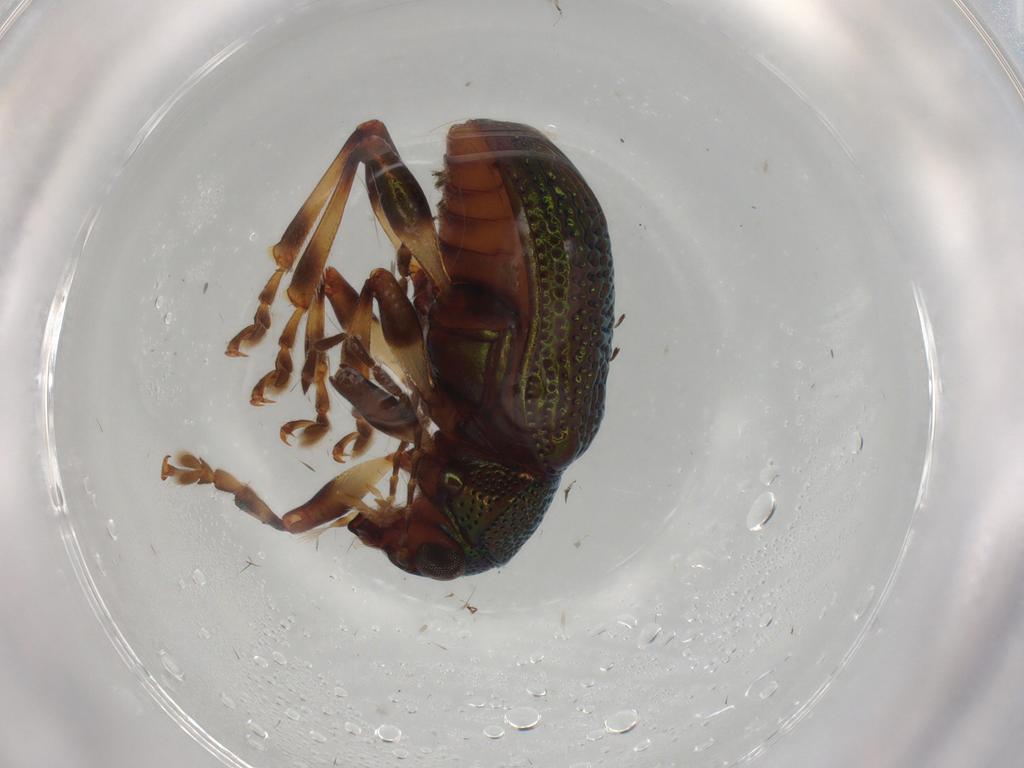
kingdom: Animalia
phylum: Arthropoda
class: Insecta
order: Coleoptera
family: Chrysomelidae
